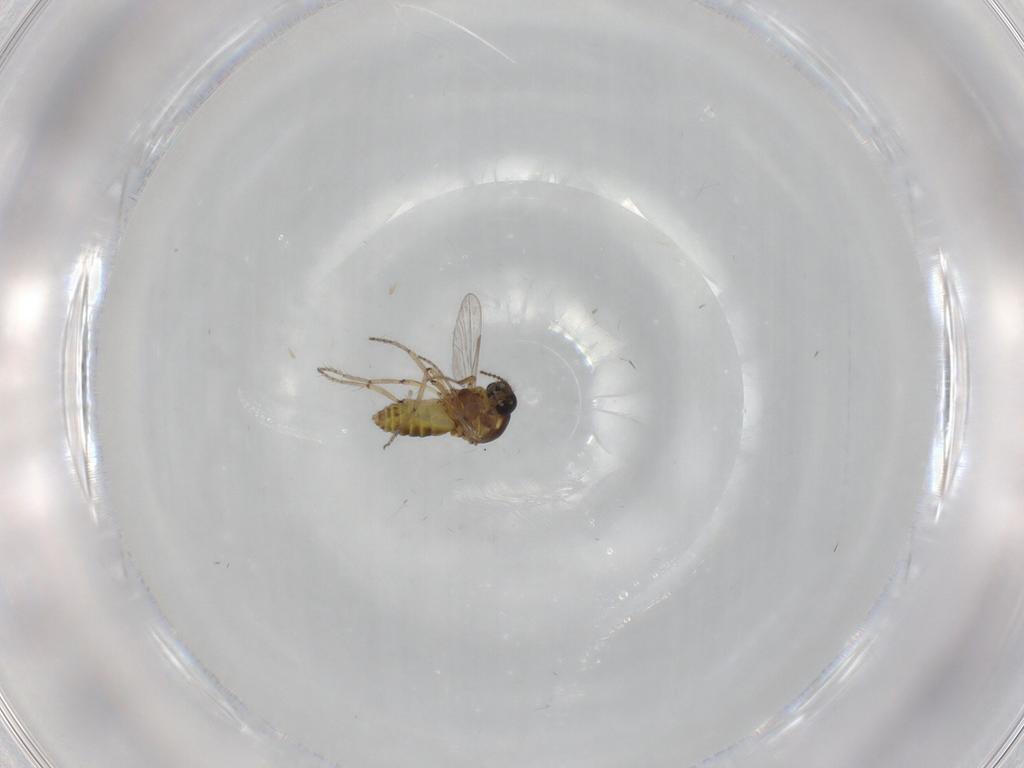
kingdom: Animalia
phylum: Arthropoda
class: Insecta
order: Diptera
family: Ceratopogonidae
